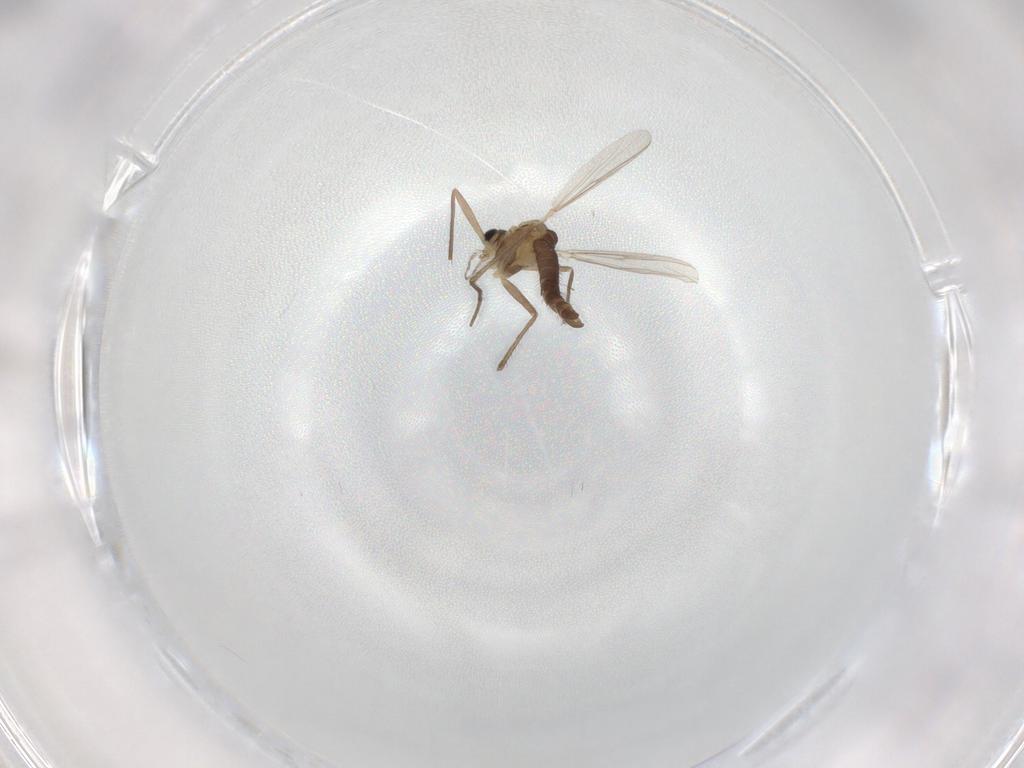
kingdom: Animalia
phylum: Arthropoda
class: Insecta
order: Diptera
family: Chironomidae
